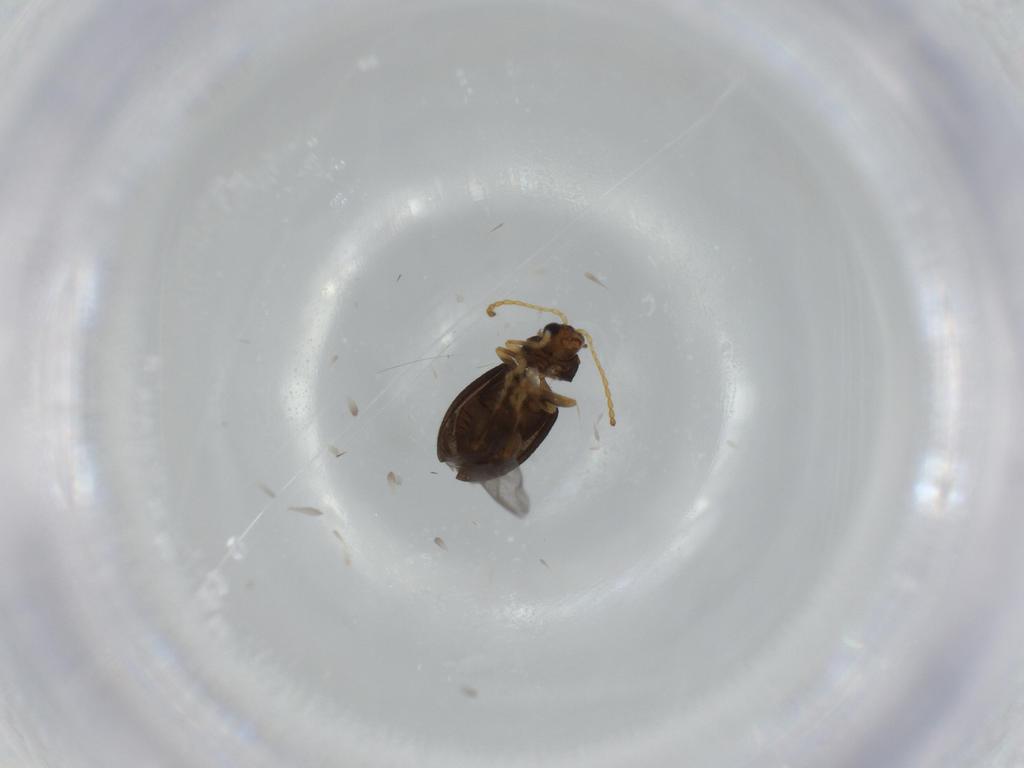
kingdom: Animalia
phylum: Arthropoda
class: Insecta
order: Coleoptera
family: Chrysomelidae
